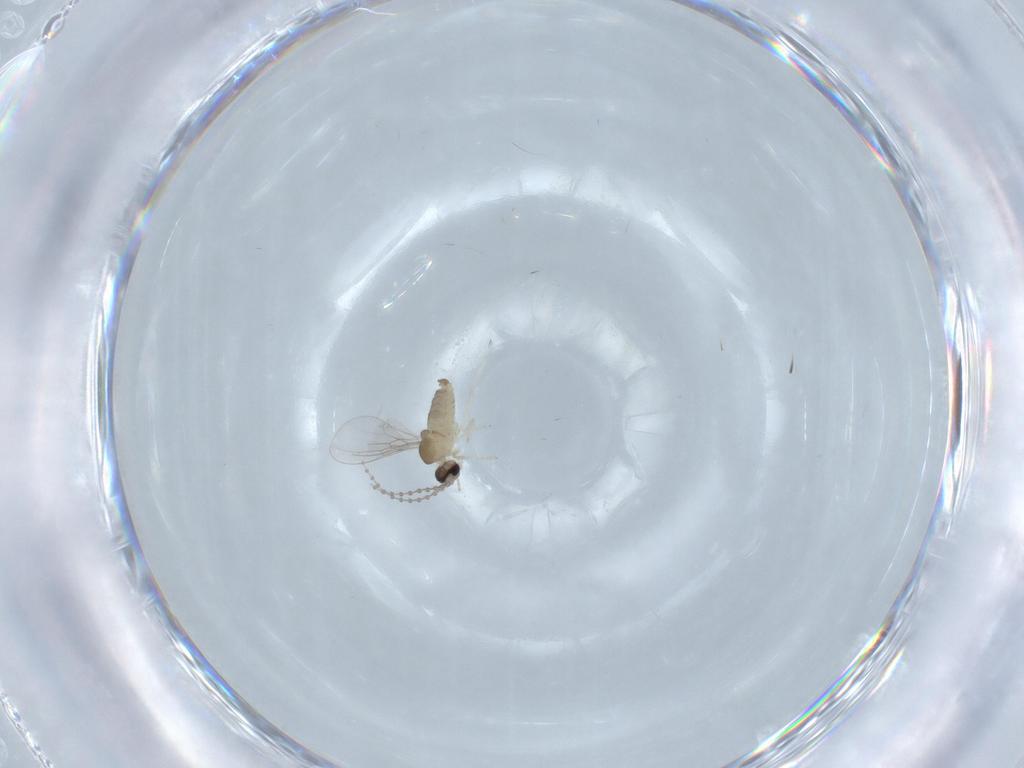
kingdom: Animalia
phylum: Arthropoda
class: Insecta
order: Diptera
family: Cecidomyiidae
